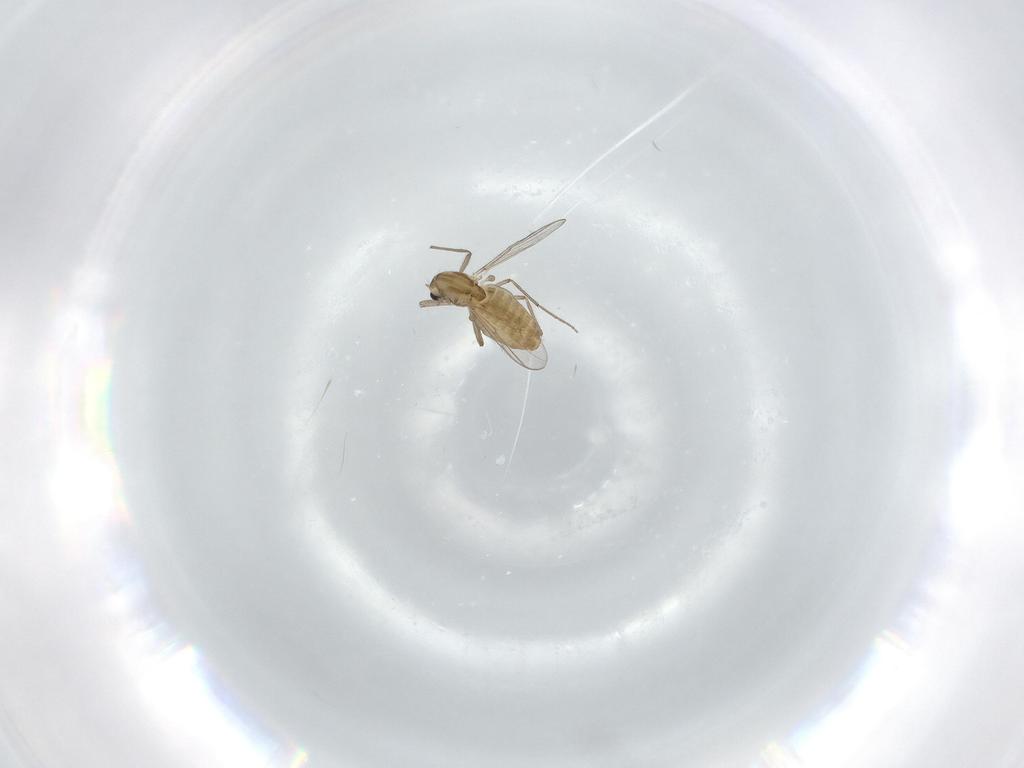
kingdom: Animalia
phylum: Arthropoda
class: Insecta
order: Diptera
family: Chironomidae
